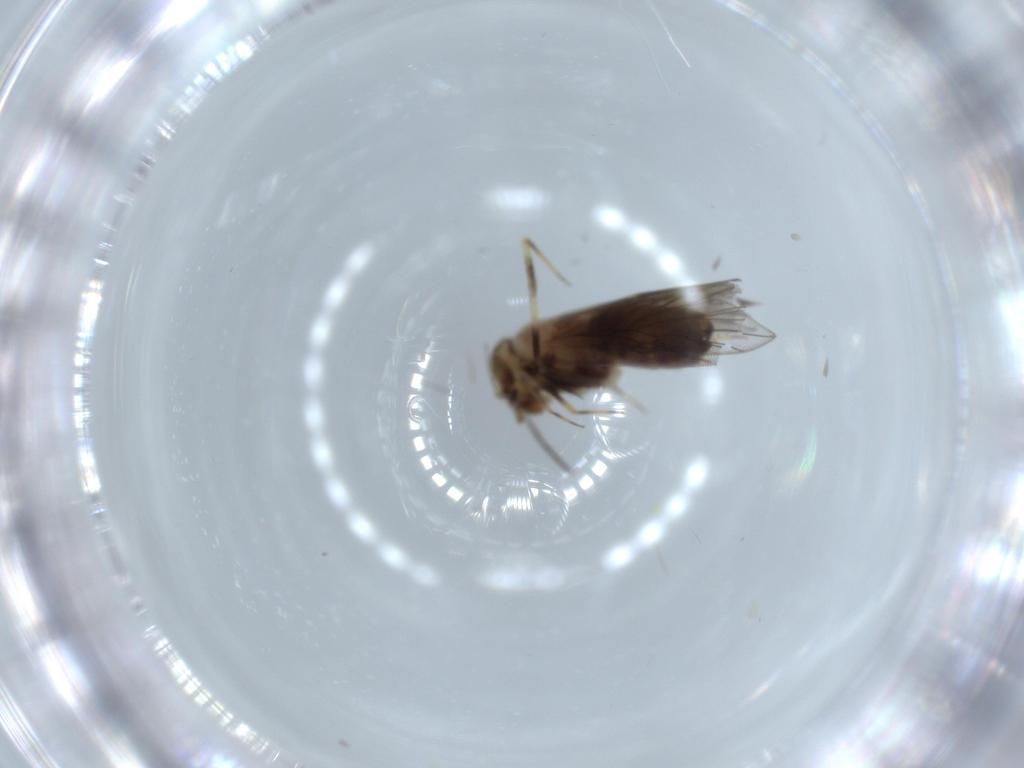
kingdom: Animalia
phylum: Arthropoda
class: Insecta
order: Psocodea
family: Lepidopsocidae
